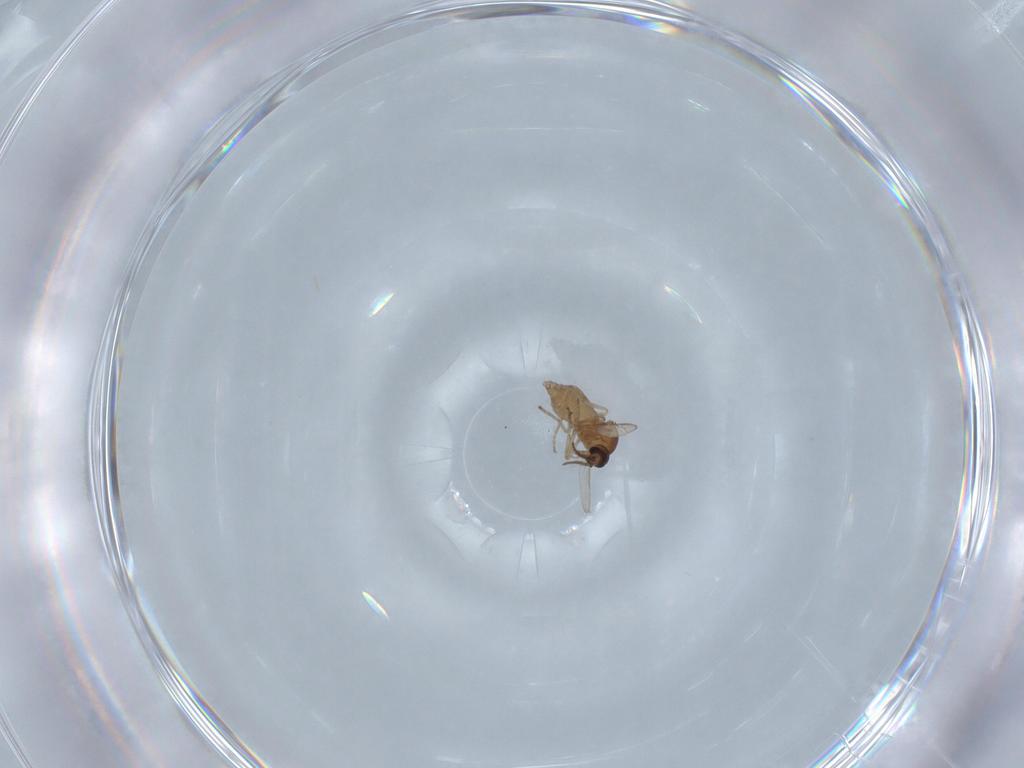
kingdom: Animalia
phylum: Arthropoda
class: Insecta
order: Diptera
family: Ceratopogonidae
